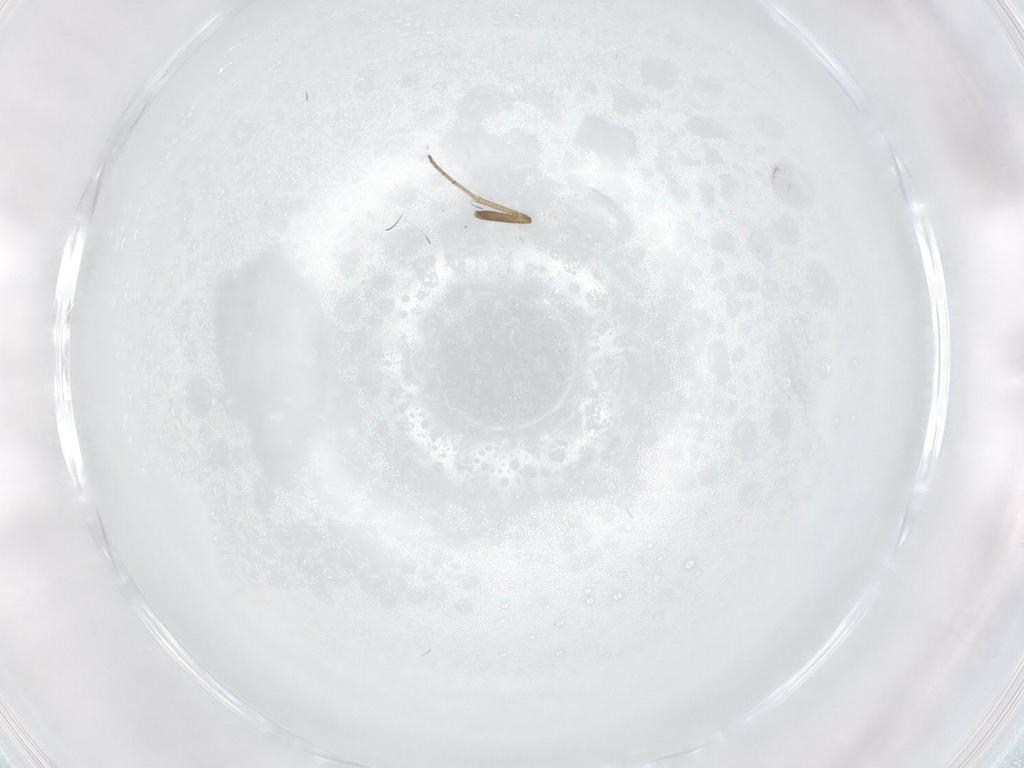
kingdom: Animalia
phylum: Arthropoda
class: Insecta
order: Diptera
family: Dolichopodidae
